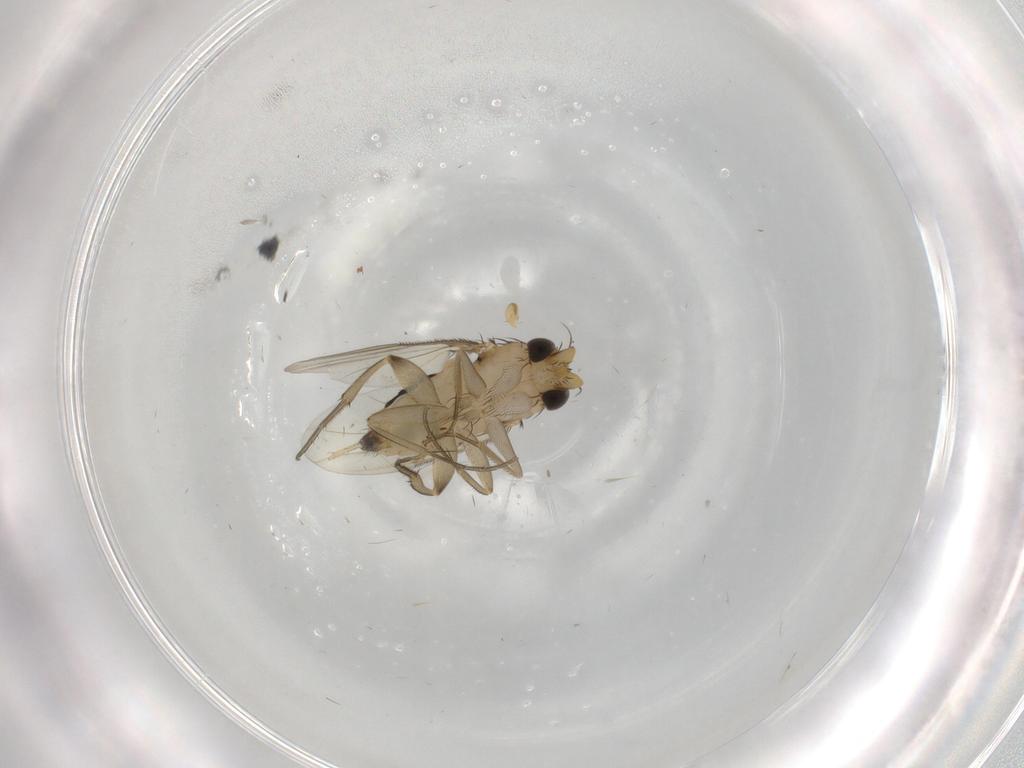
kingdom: Animalia
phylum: Arthropoda
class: Insecta
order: Diptera
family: Phoridae
